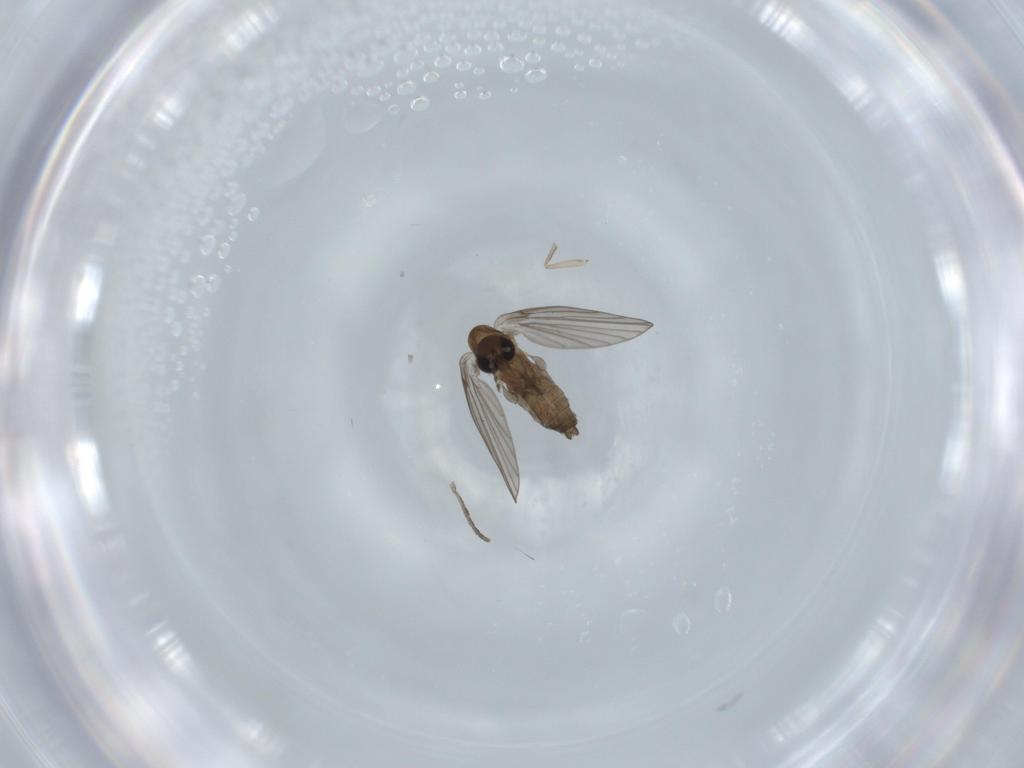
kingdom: Animalia
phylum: Arthropoda
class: Insecta
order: Diptera
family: Psychodidae
